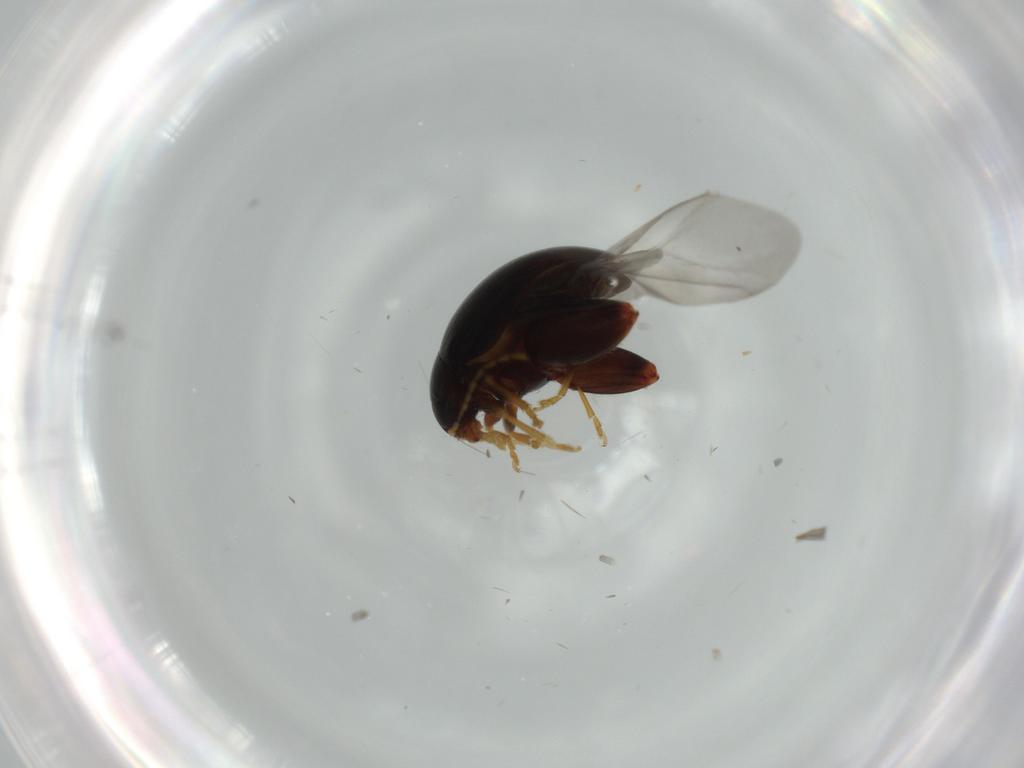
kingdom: Animalia
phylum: Arthropoda
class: Insecta
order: Coleoptera
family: Chrysomelidae
